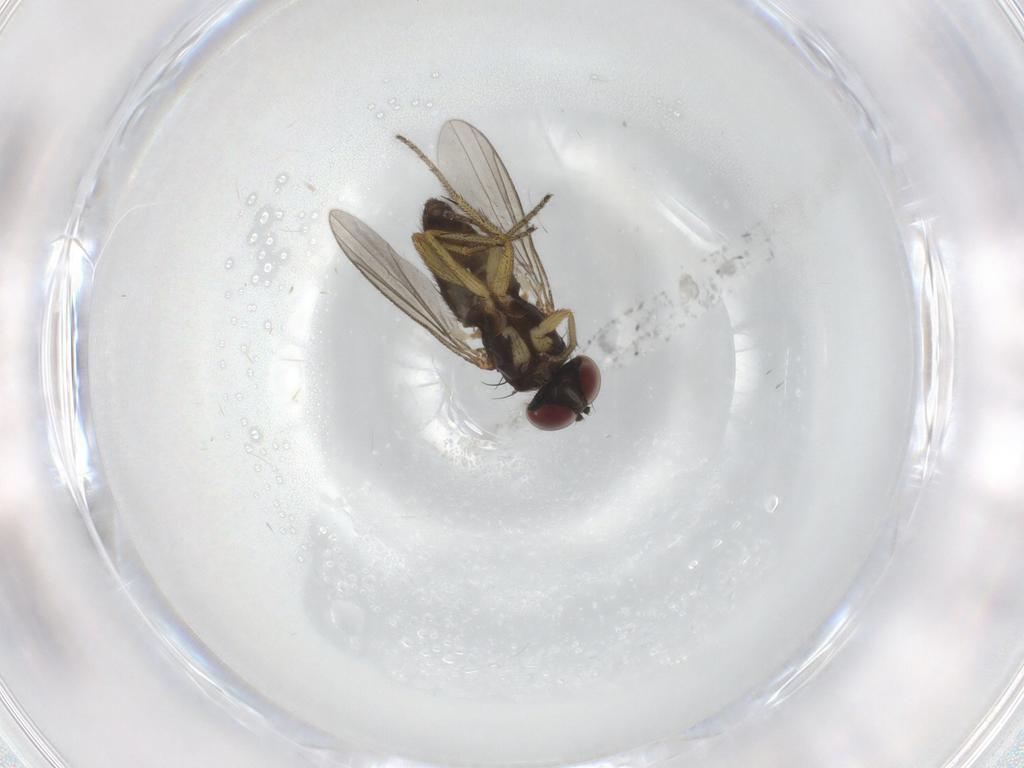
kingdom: Animalia
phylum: Arthropoda
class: Insecta
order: Diptera
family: Dolichopodidae
